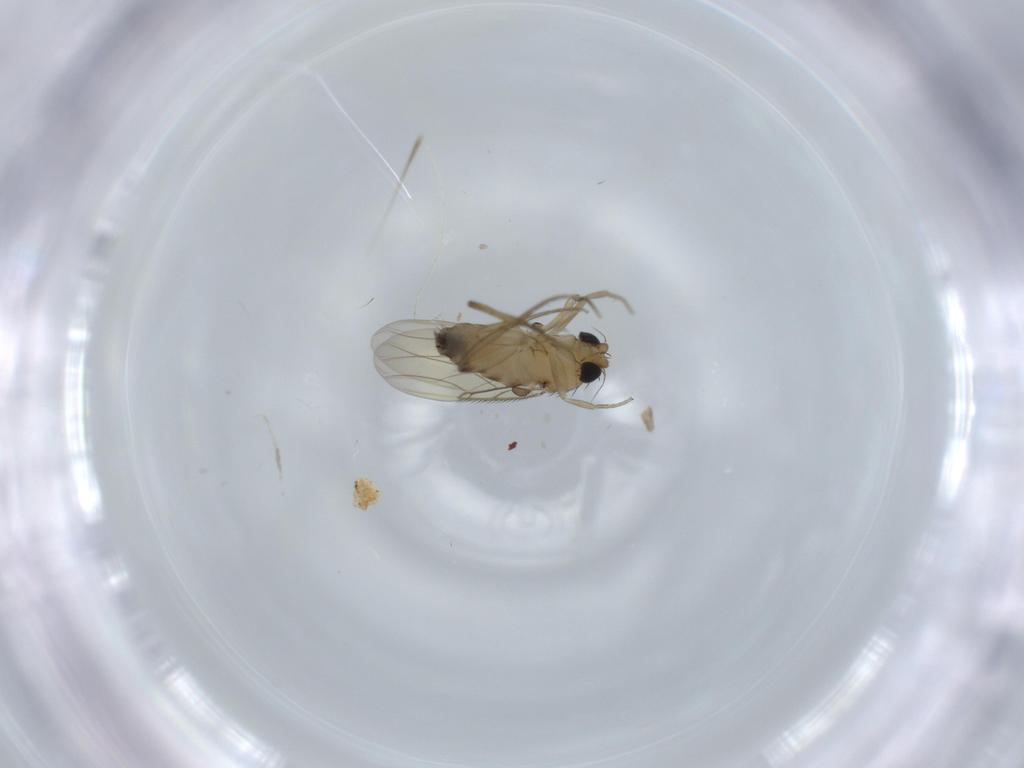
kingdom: Animalia
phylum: Arthropoda
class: Insecta
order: Diptera
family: Phoridae
